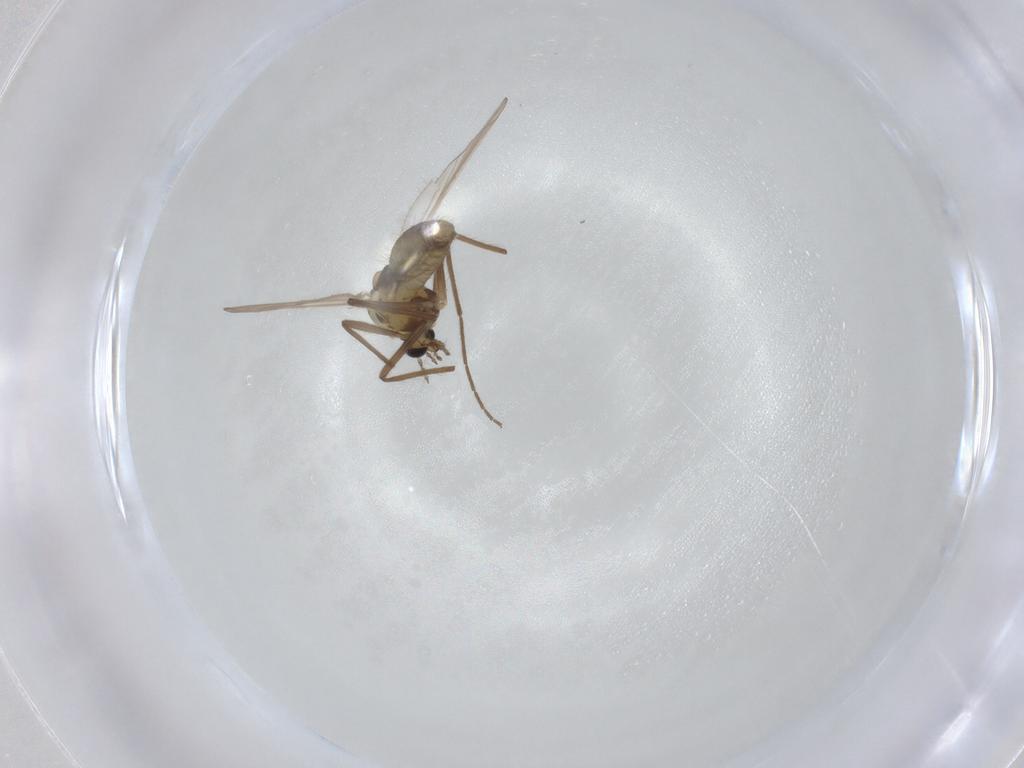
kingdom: Animalia
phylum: Arthropoda
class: Insecta
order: Diptera
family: Chironomidae
